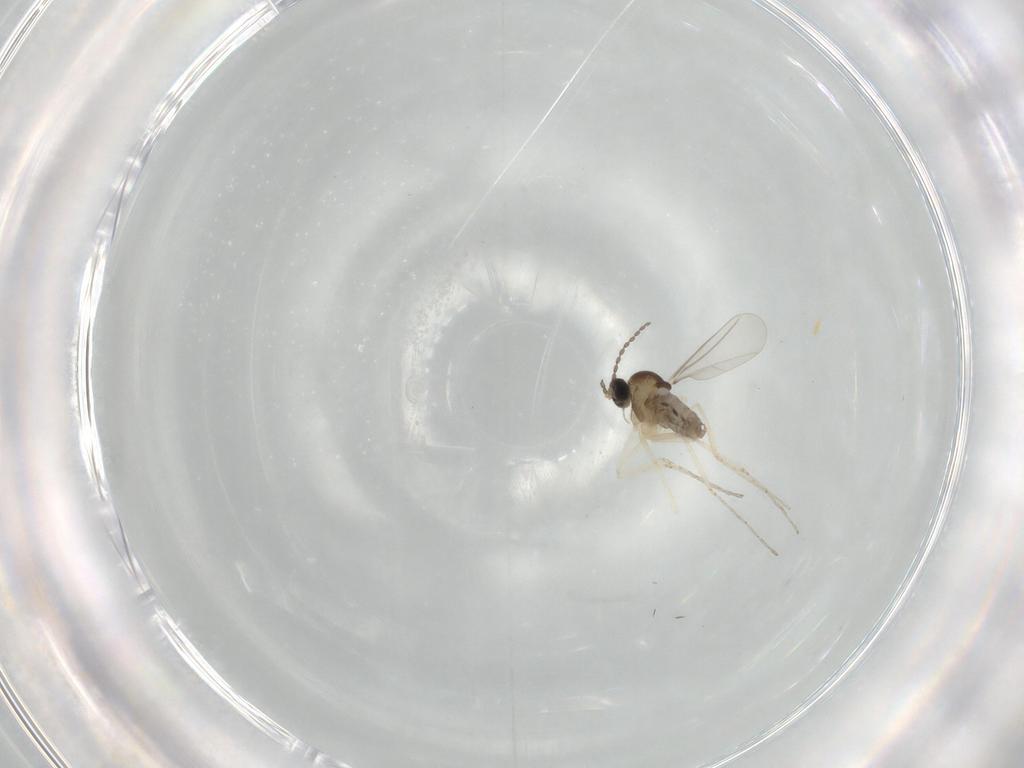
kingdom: Animalia
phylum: Arthropoda
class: Insecta
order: Diptera
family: Cecidomyiidae
